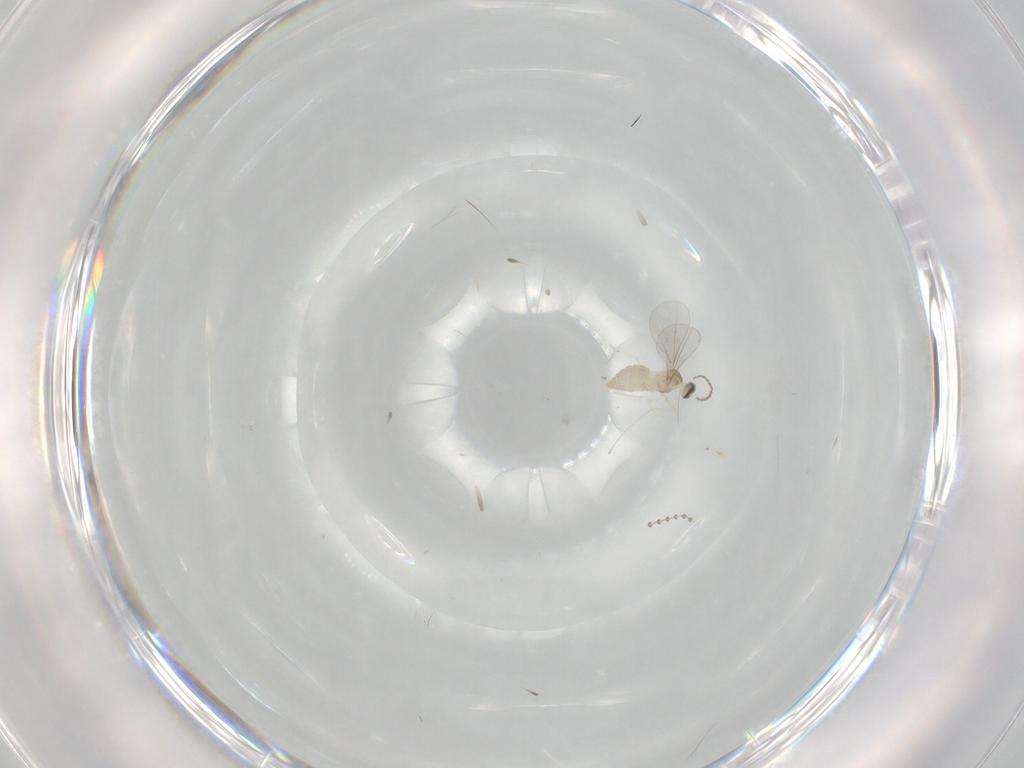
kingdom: Animalia
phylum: Arthropoda
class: Insecta
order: Diptera
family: Cecidomyiidae
